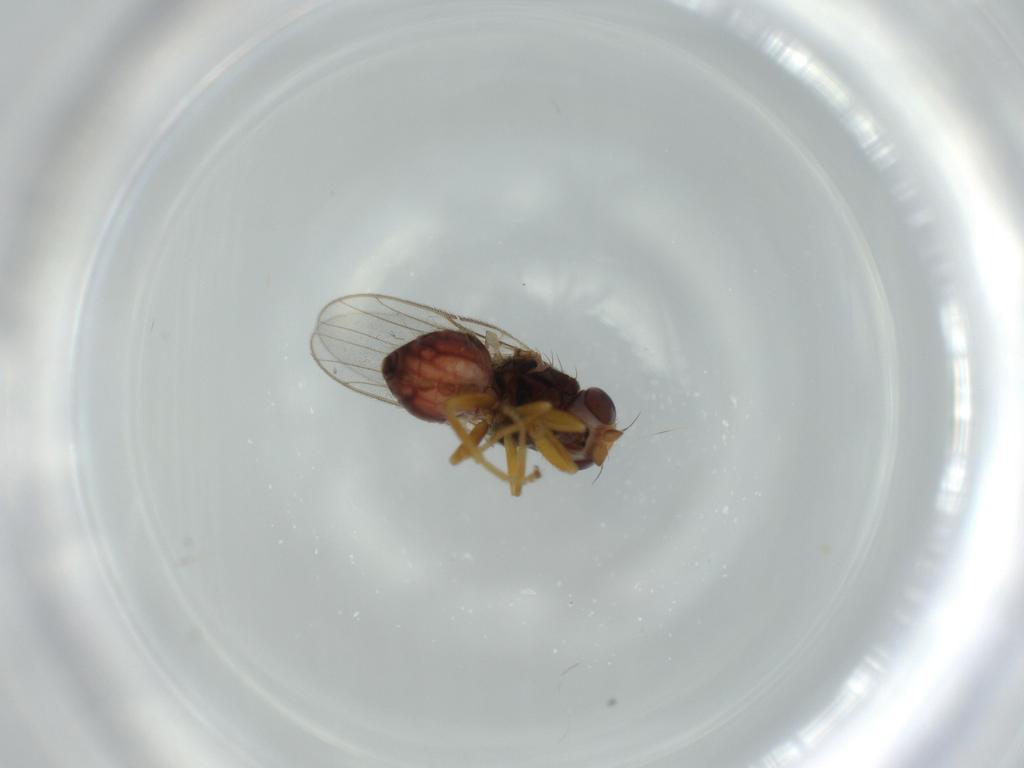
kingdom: Animalia
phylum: Arthropoda
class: Insecta
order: Diptera
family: Chloropidae
